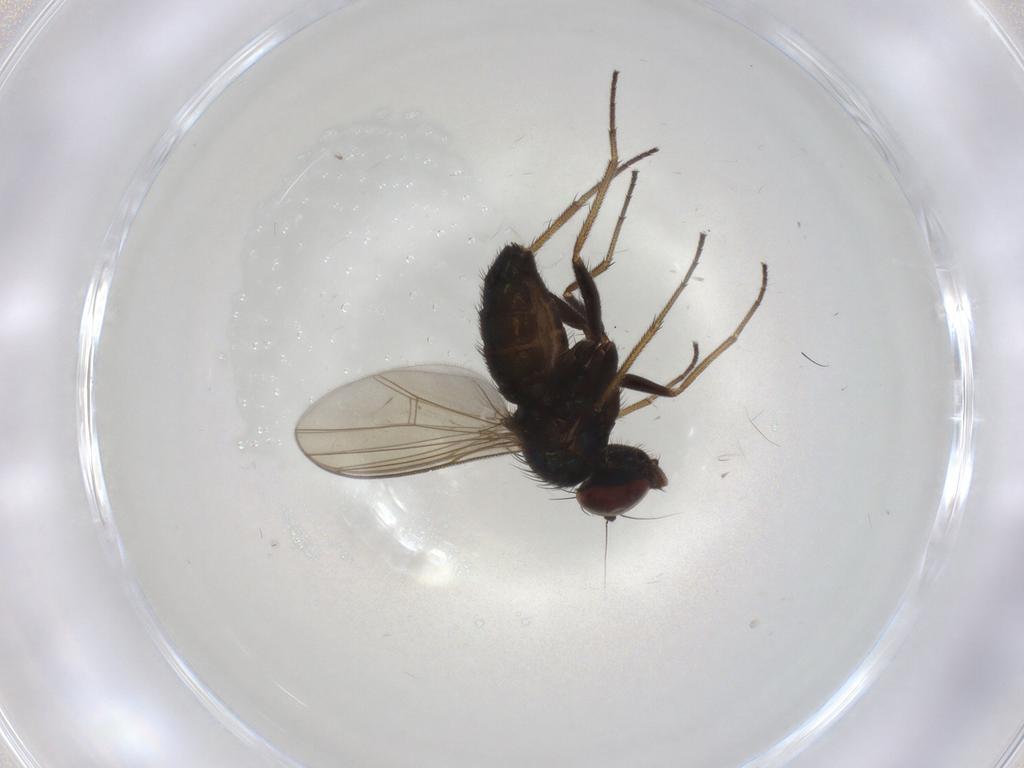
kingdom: Animalia
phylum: Arthropoda
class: Insecta
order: Diptera
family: Dolichopodidae
